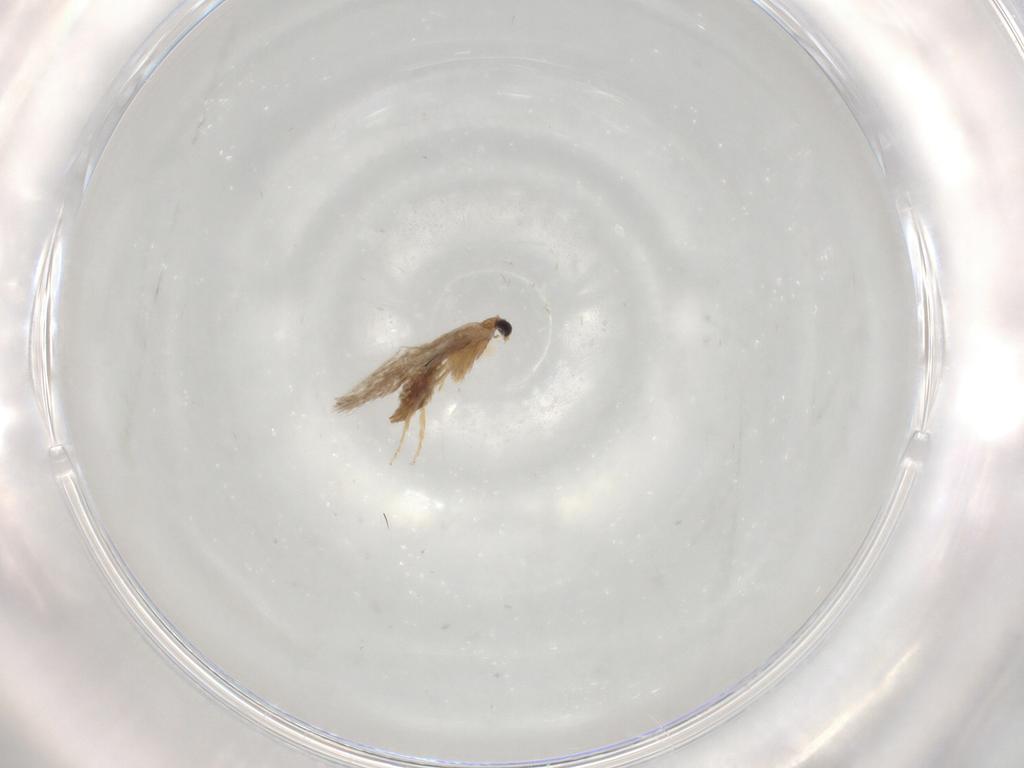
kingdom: Animalia
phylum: Arthropoda
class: Insecta
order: Lepidoptera
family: Nepticulidae
